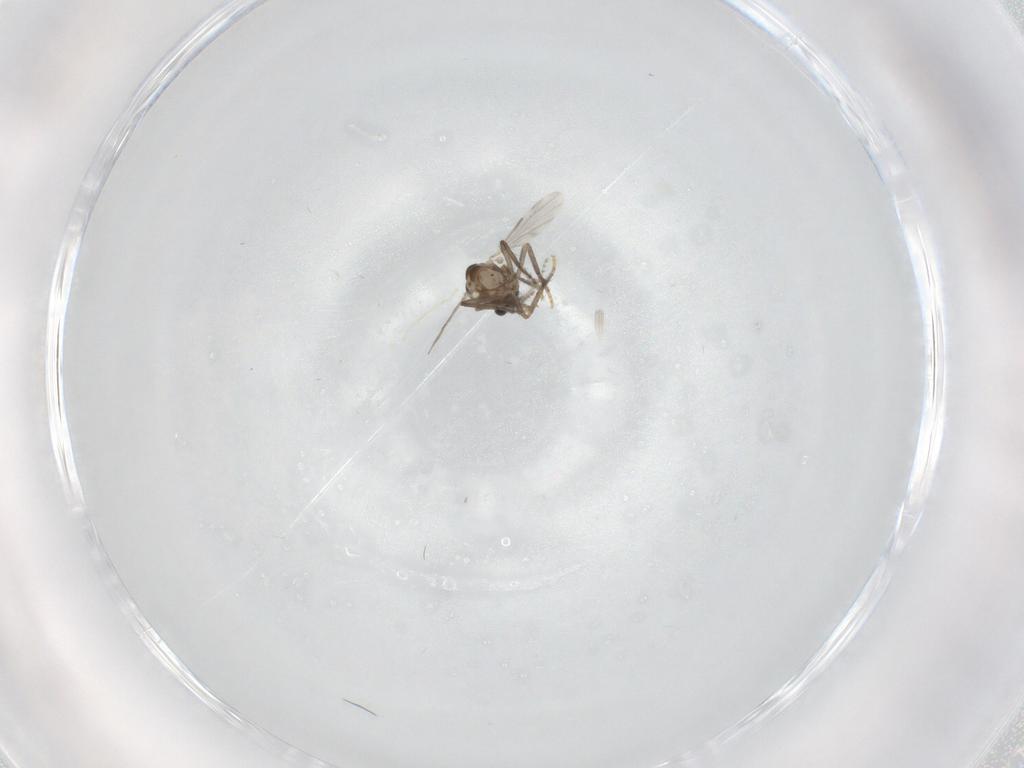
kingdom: Animalia
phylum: Arthropoda
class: Insecta
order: Diptera
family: Ceratopogonidae
